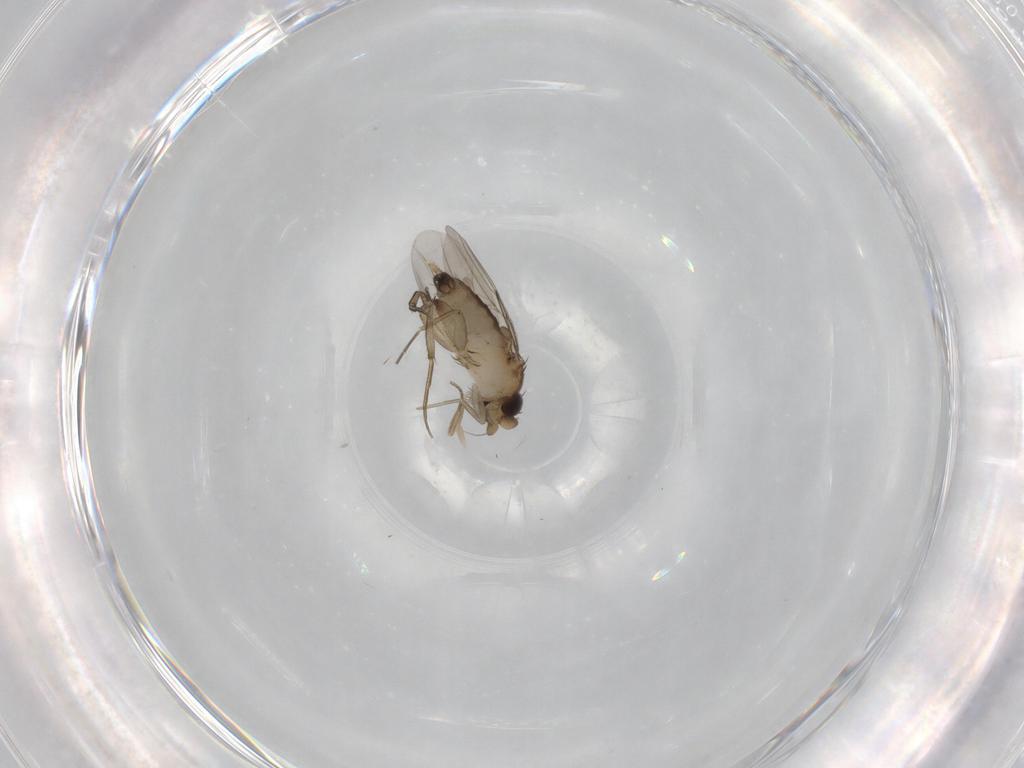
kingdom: Animalia
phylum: Arthropoda
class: Insecta
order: Diptera
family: Phoridae
